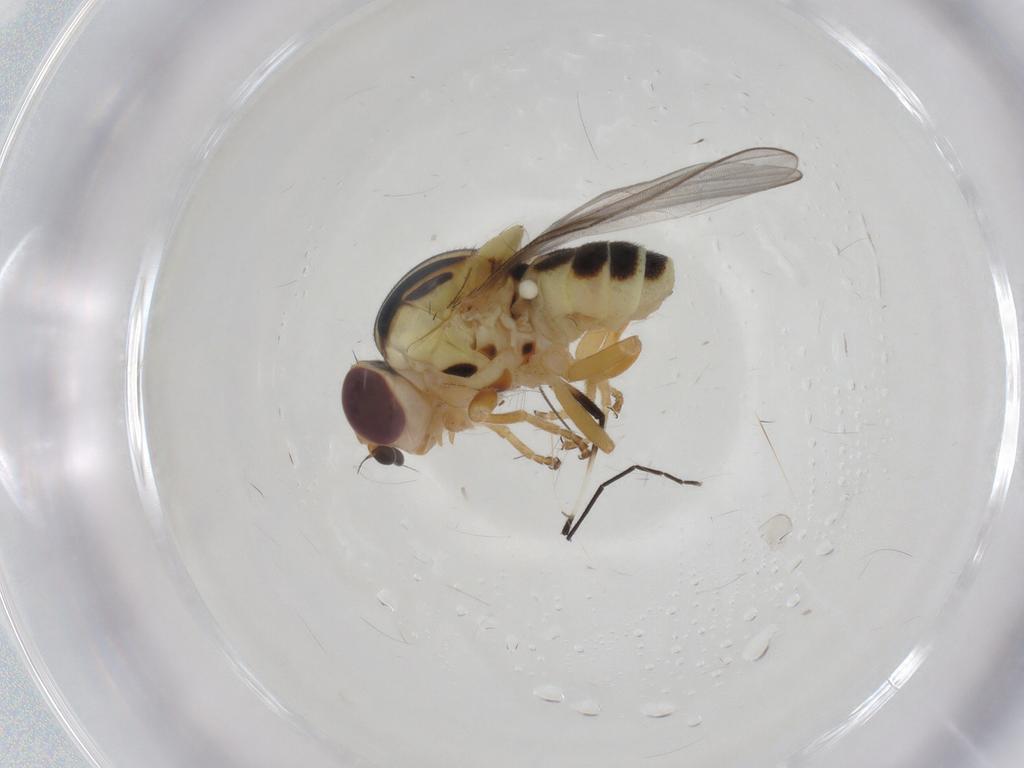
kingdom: Animalia
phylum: Arthropoda
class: Insecta
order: Diptera
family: Chloropidae
